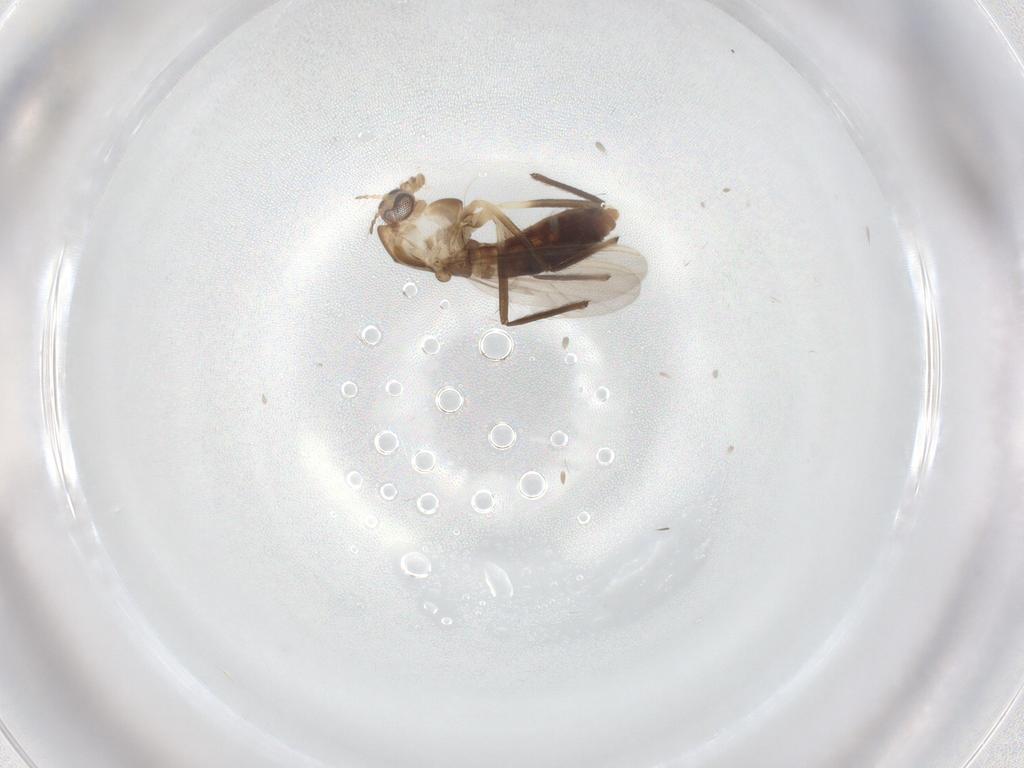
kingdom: Animalia
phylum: Arthropoda
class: Insecta
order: Diptera
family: Chironomidae
